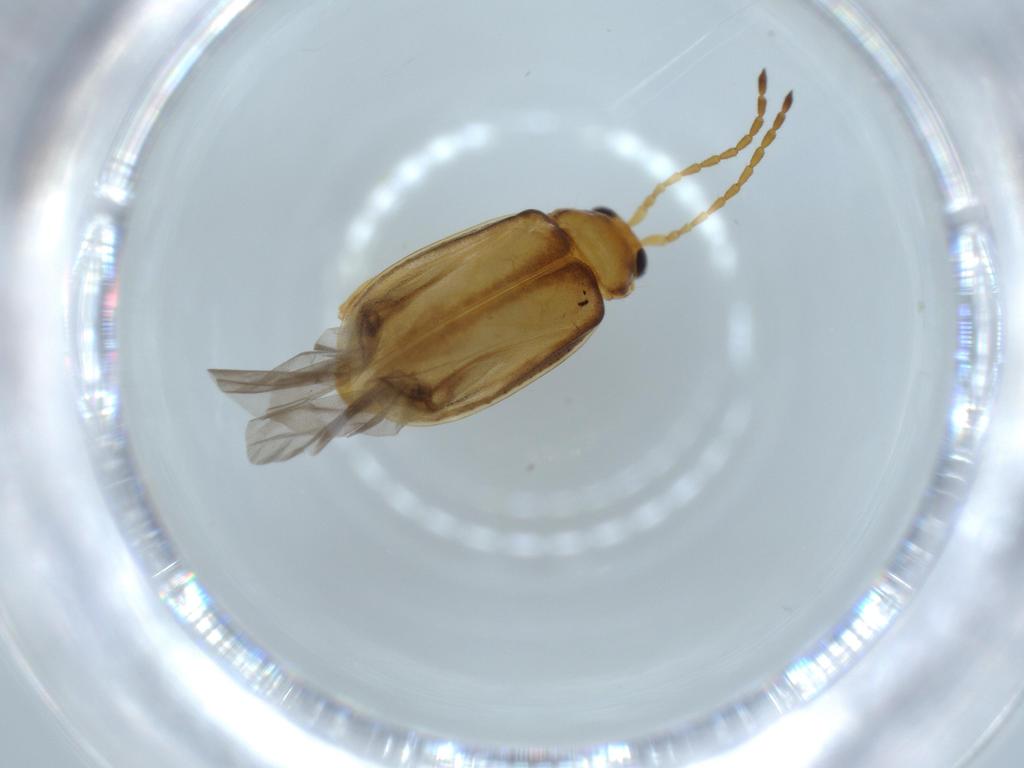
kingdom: Animalia
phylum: Arthropoda
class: Insecta
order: Coleoptera
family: Chrysomelidae
